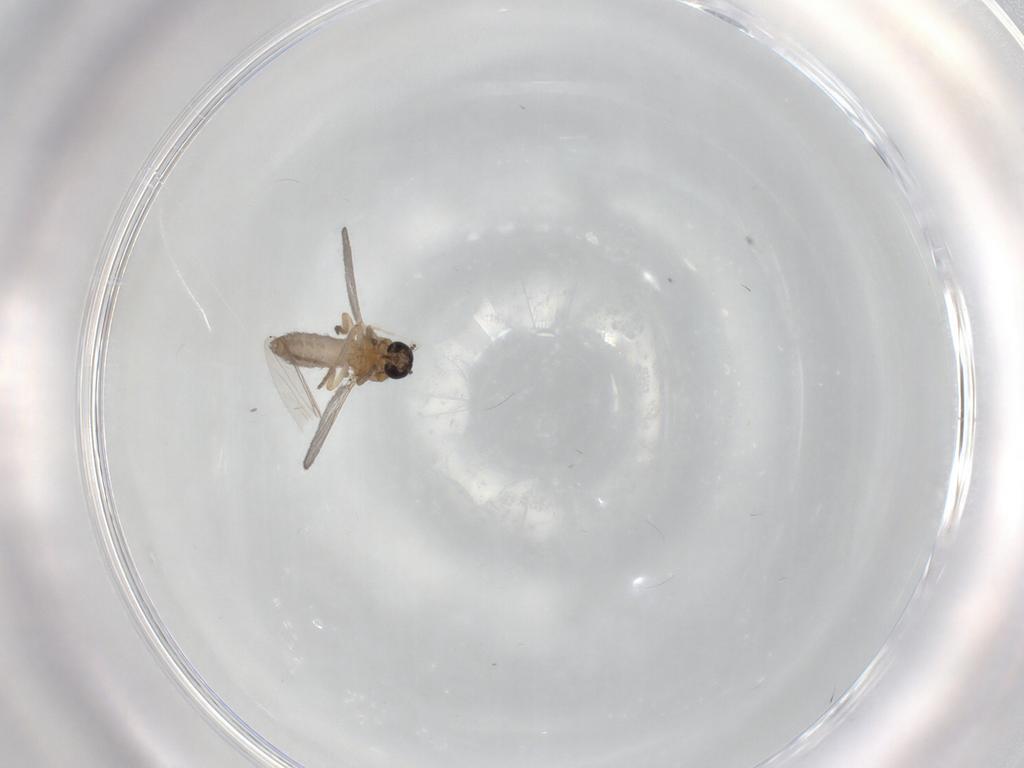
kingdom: Animalia
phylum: Arthropoda
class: Insecta
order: Diptera
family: Ceratopogonidae
